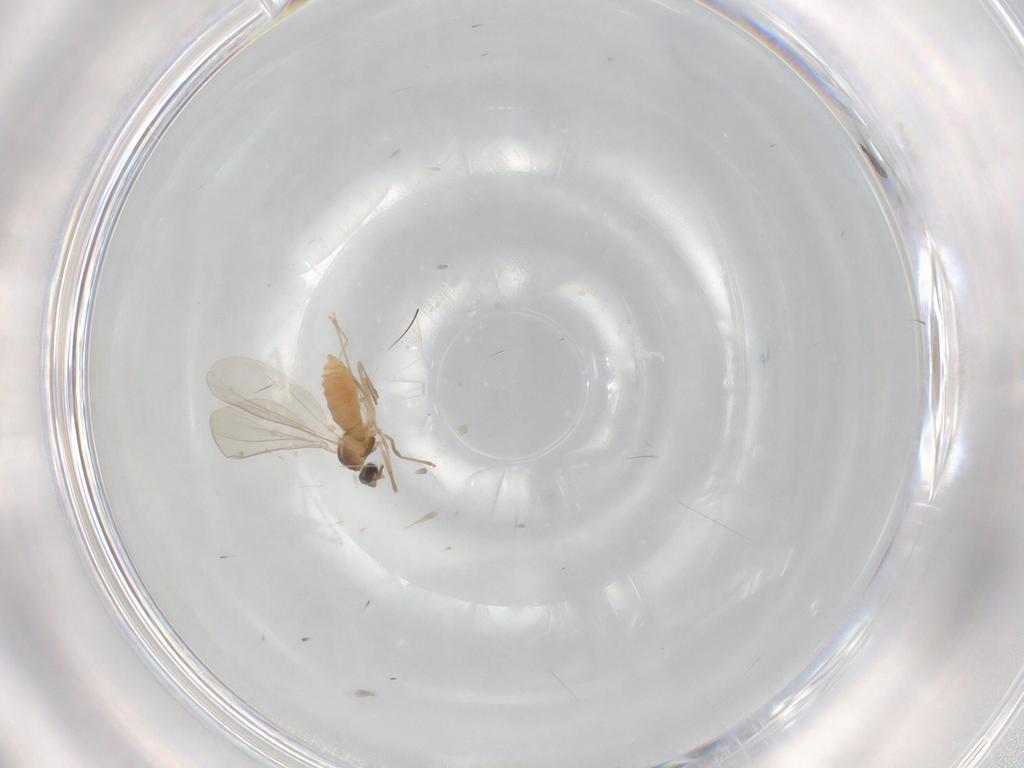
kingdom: Animalia
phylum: Arthropoda
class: Insecta
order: Diptera
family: Cecidomyiidae
